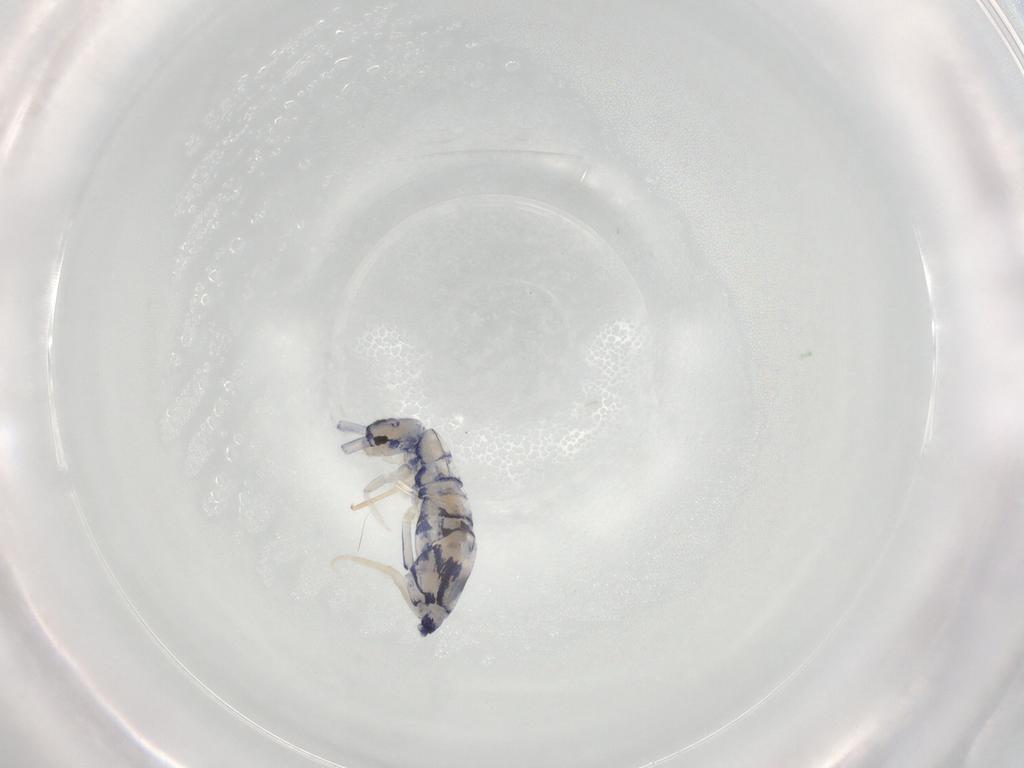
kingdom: Animalia
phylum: Arthropoda
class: Collembola
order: Entomobryomorpha
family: Entomobryidae
